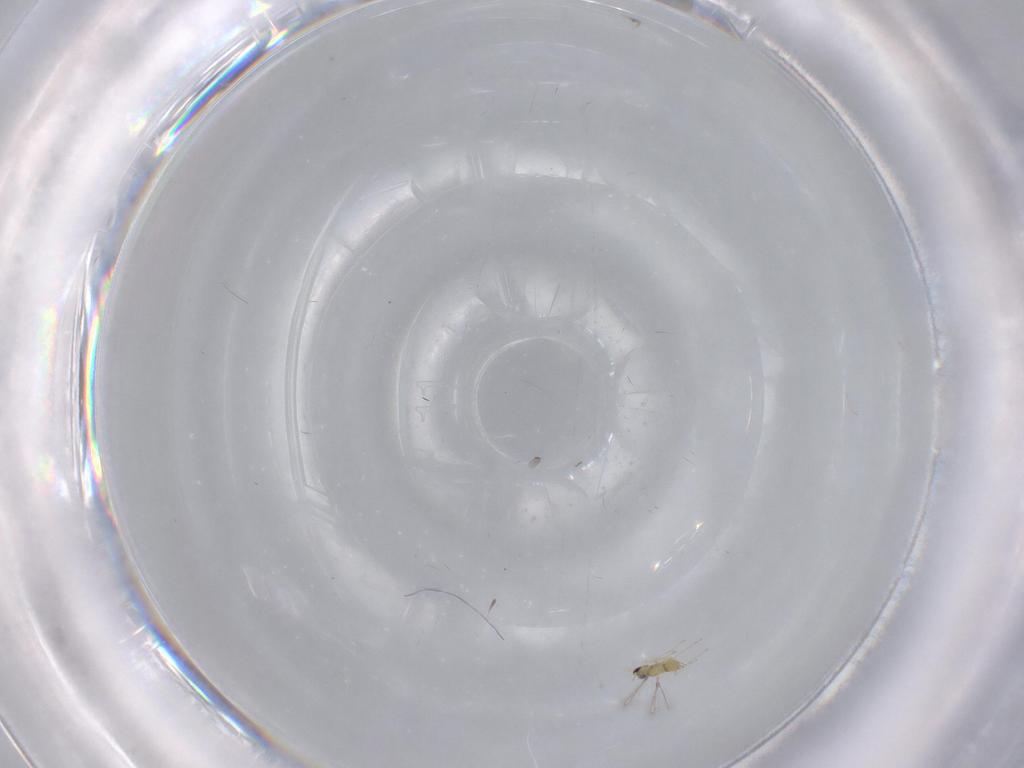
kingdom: Animalia
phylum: Arthropoda
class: Insecta
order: Hymenoptera
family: Mymaridae
